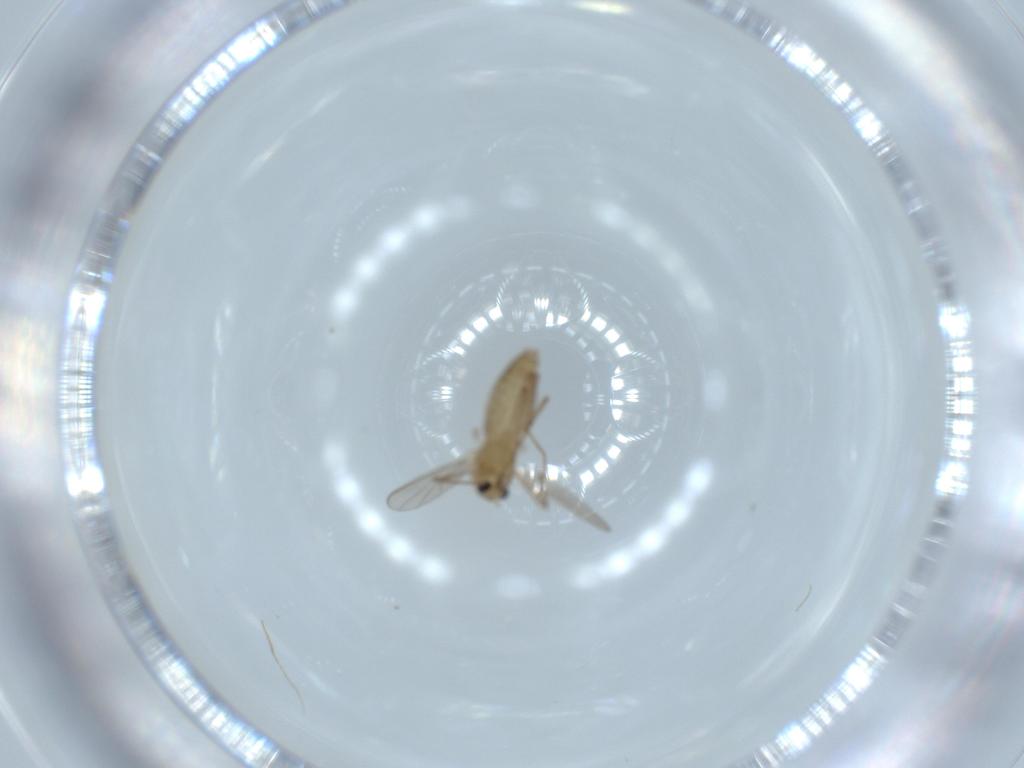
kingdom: Animalia
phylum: Arthropoda
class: Insecta
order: Diptera
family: Chironomidae
